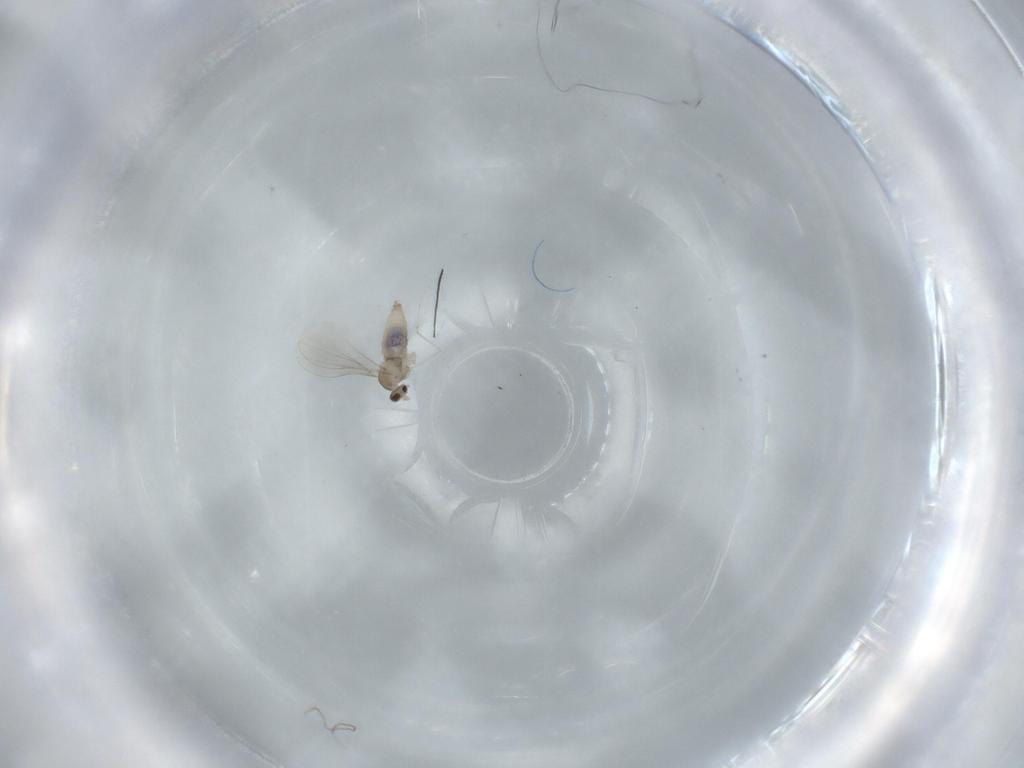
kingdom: Animalia
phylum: Arthropoda
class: Insecta
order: Diptera
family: Cecidomyiidae
